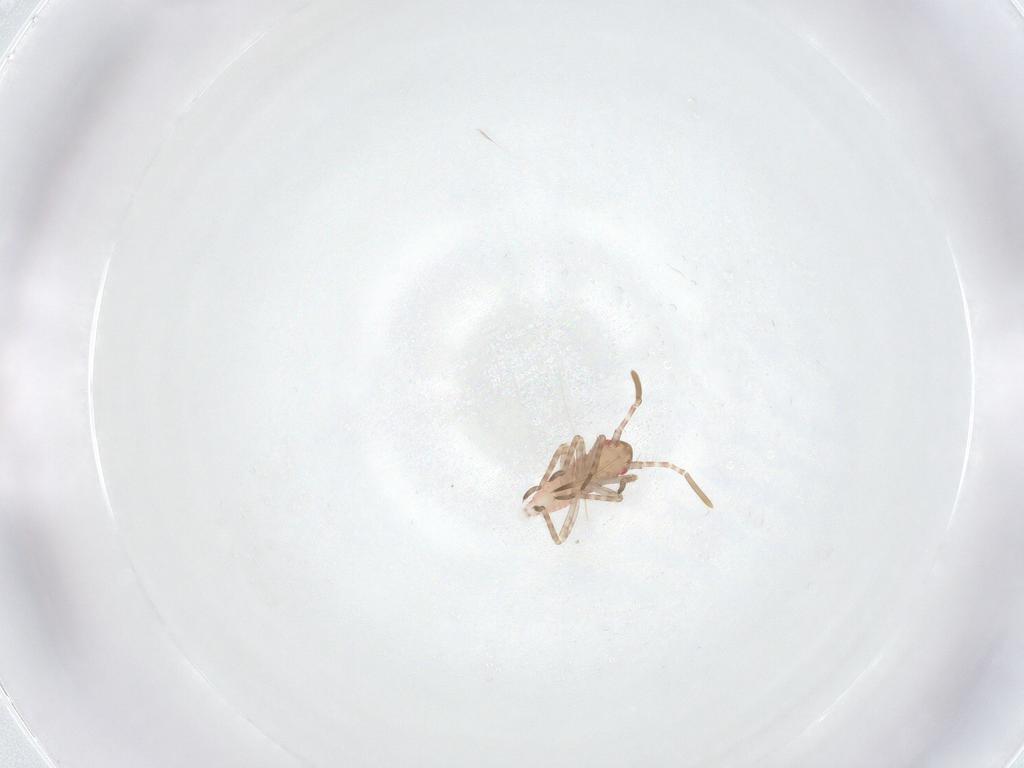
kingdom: Animalia
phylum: Arthropoda
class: Insecta
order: Hemiptera
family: Miridae
